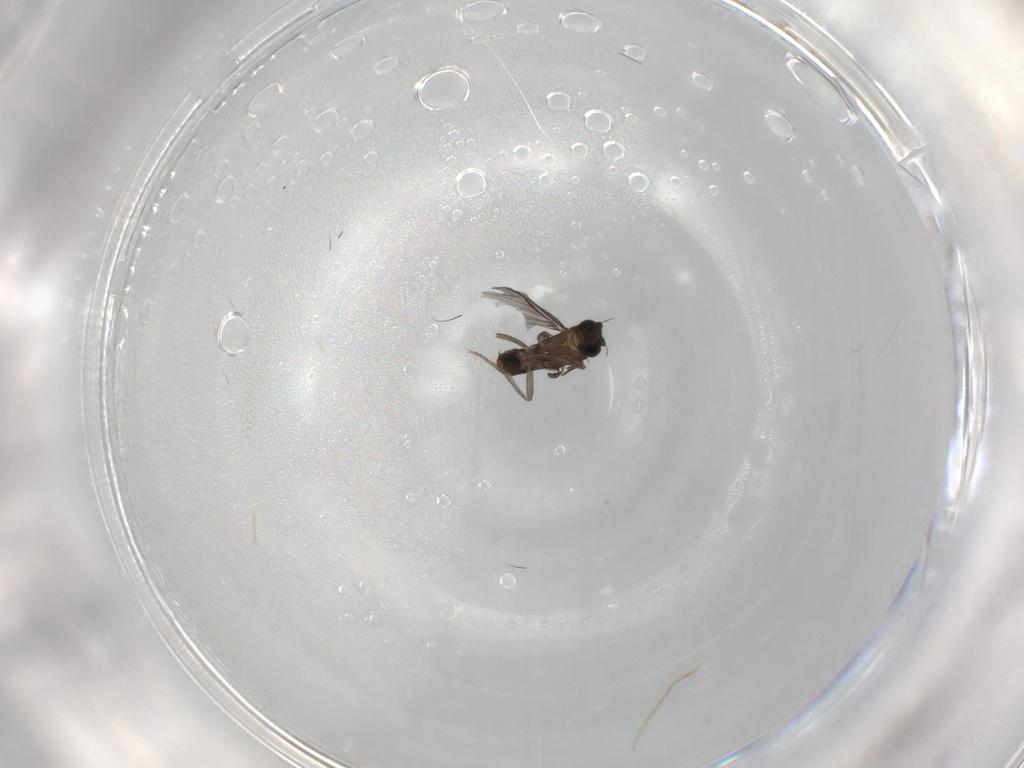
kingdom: Animalia
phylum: Arthropoda
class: Insecta
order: Diptera
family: Phoridae
